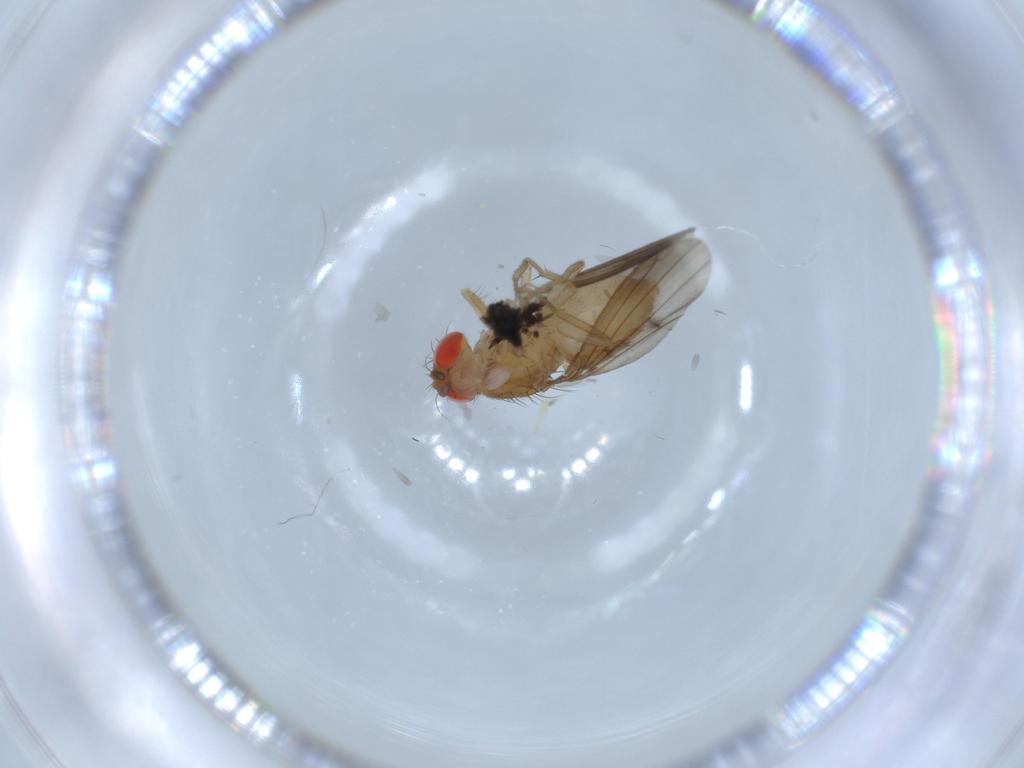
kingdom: Animalia
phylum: Arthropoda
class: Insecta
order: Diptera
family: Drosophilidae
